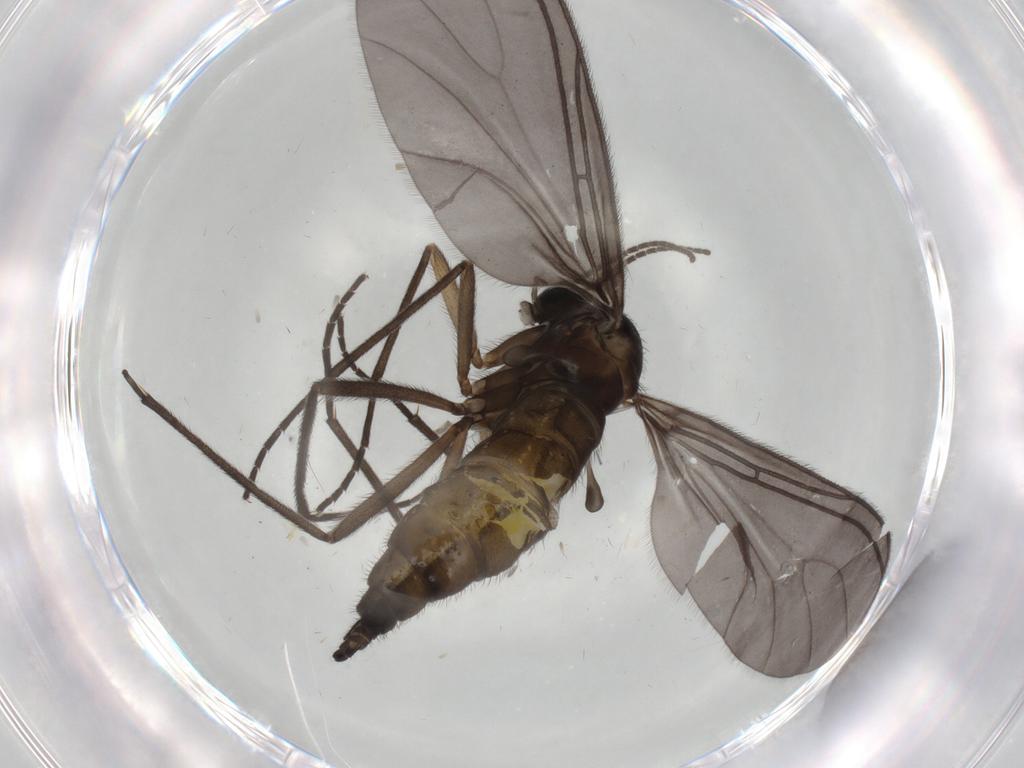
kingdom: Animalia
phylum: Arthropoda
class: Insecta
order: Diptera
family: Sciaridae
